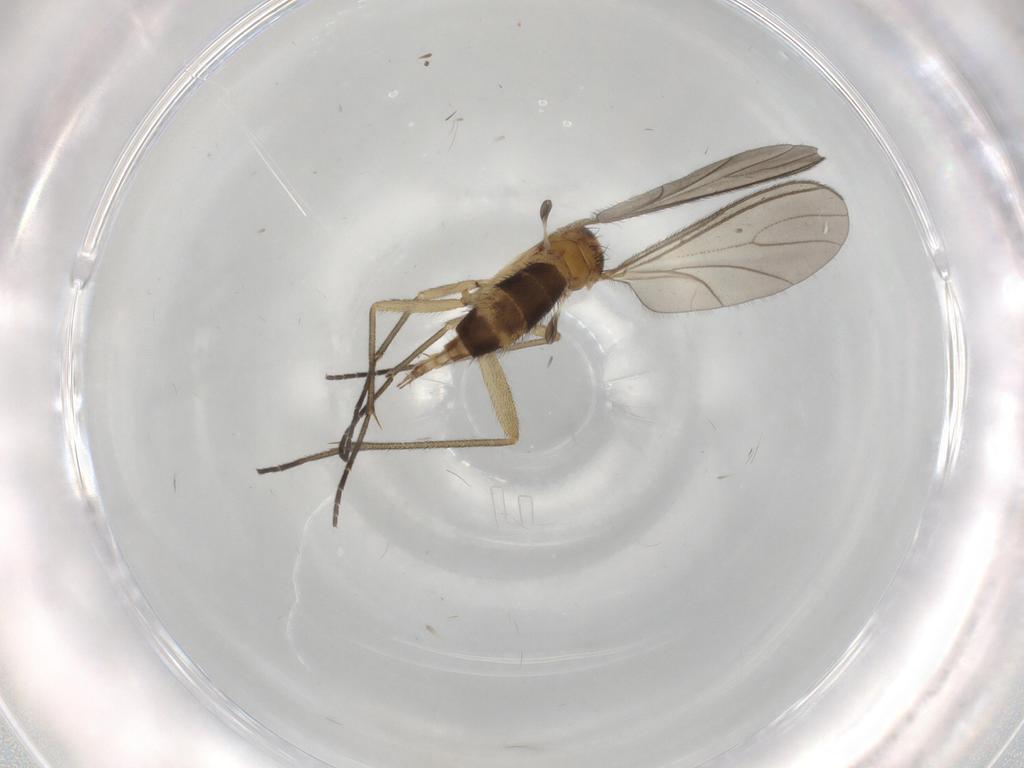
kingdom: Animalia
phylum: Arthropoda
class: Insecta
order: Diptera
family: Sciaridae
